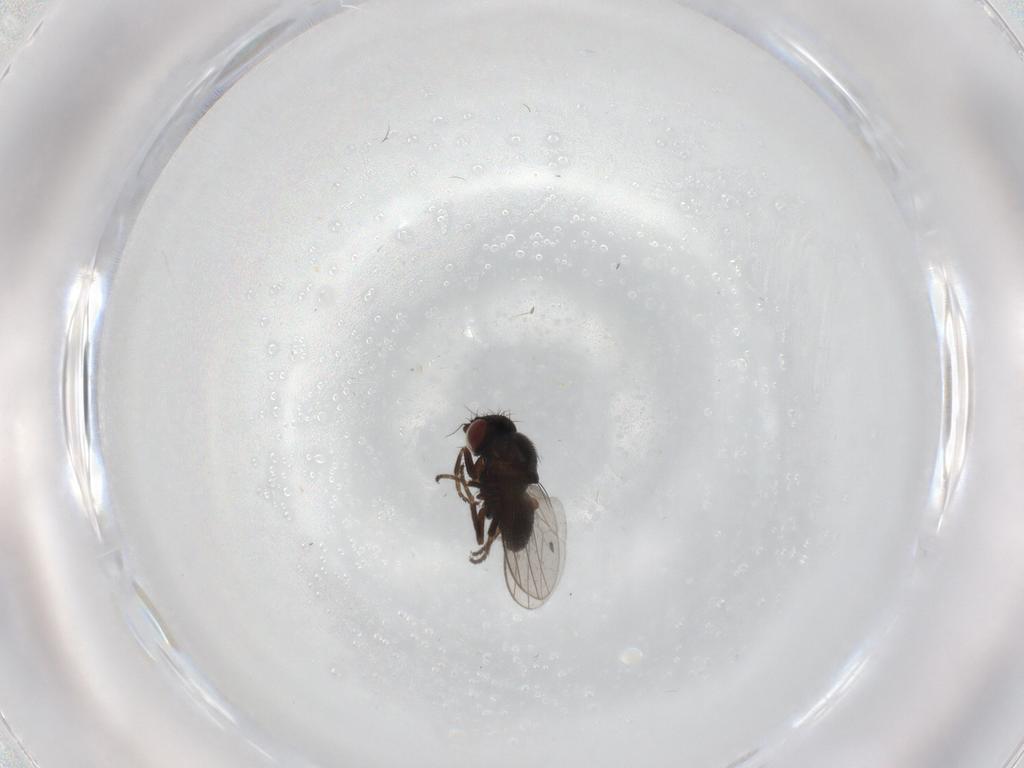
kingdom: Animalia
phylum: Arthropoda
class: Insecta
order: Diptera
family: Milichiidae
